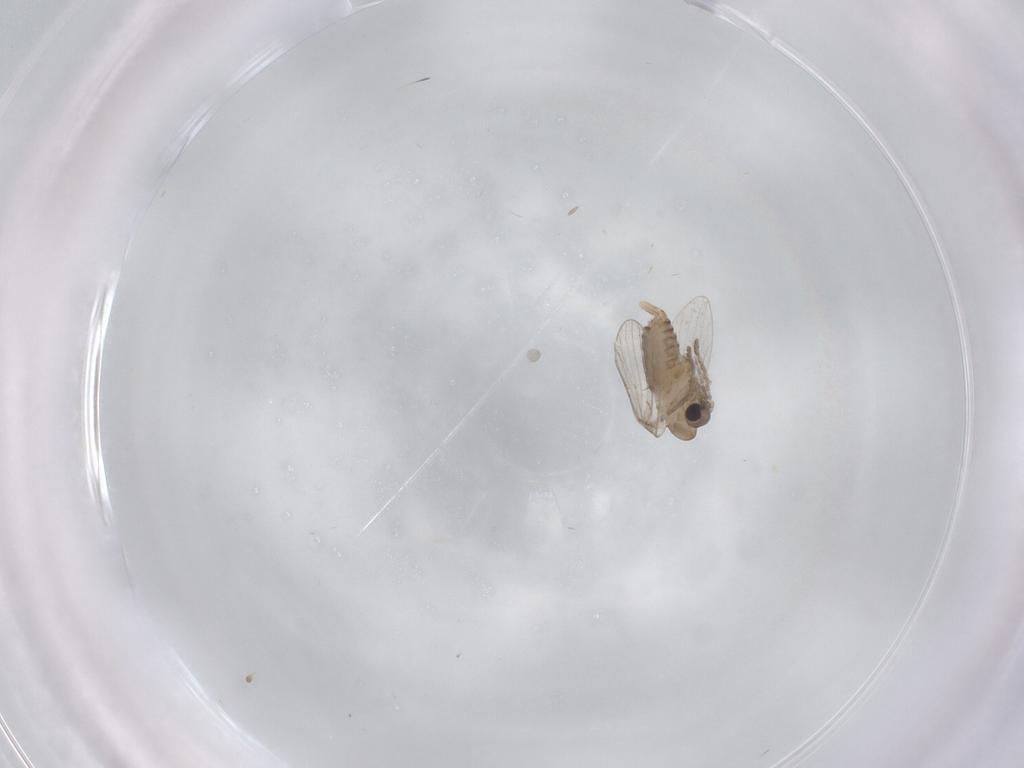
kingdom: Animalia
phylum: Arthropoda
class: Insecta
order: Diptera
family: Psychodidae
